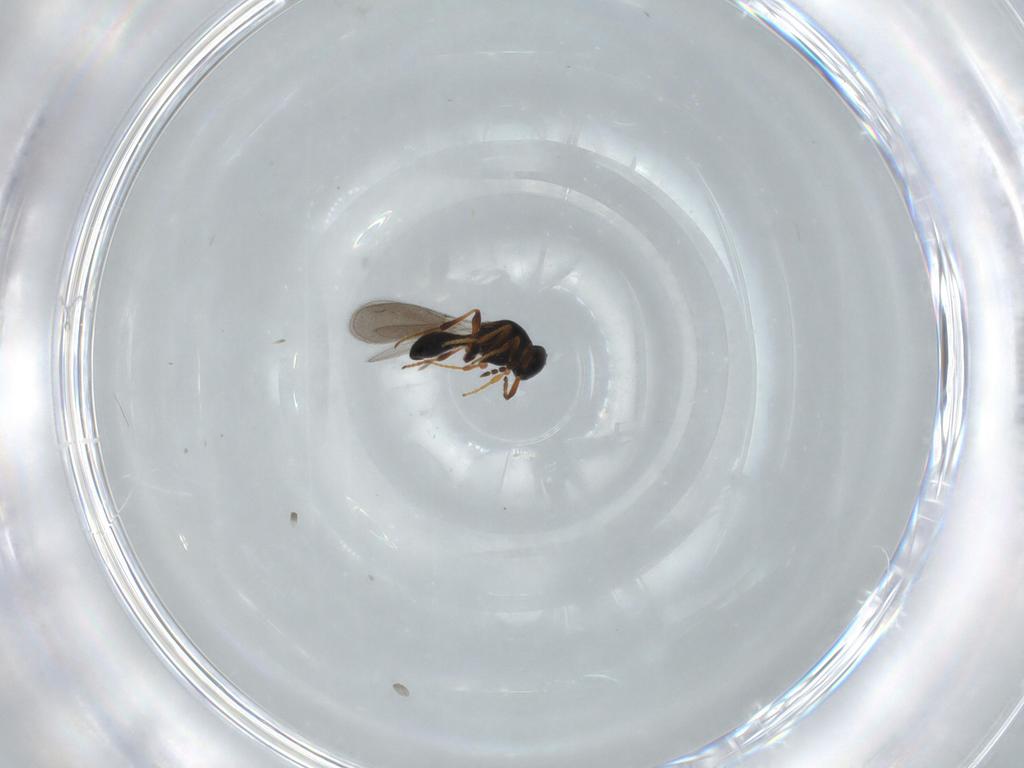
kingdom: Animalia
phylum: Arthropoda
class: Insecta
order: Hymenoptera
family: Platygastridae
